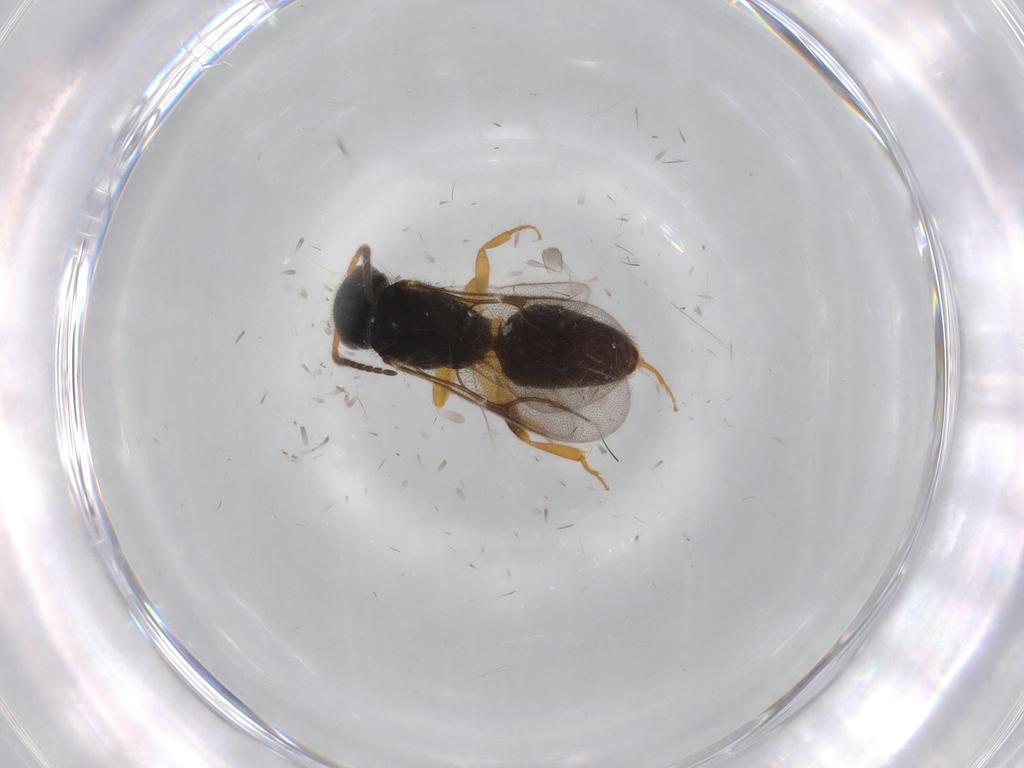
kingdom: Animalia
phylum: Arthropoda
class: Insecta
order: Hymenoptera
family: Bethylidae
